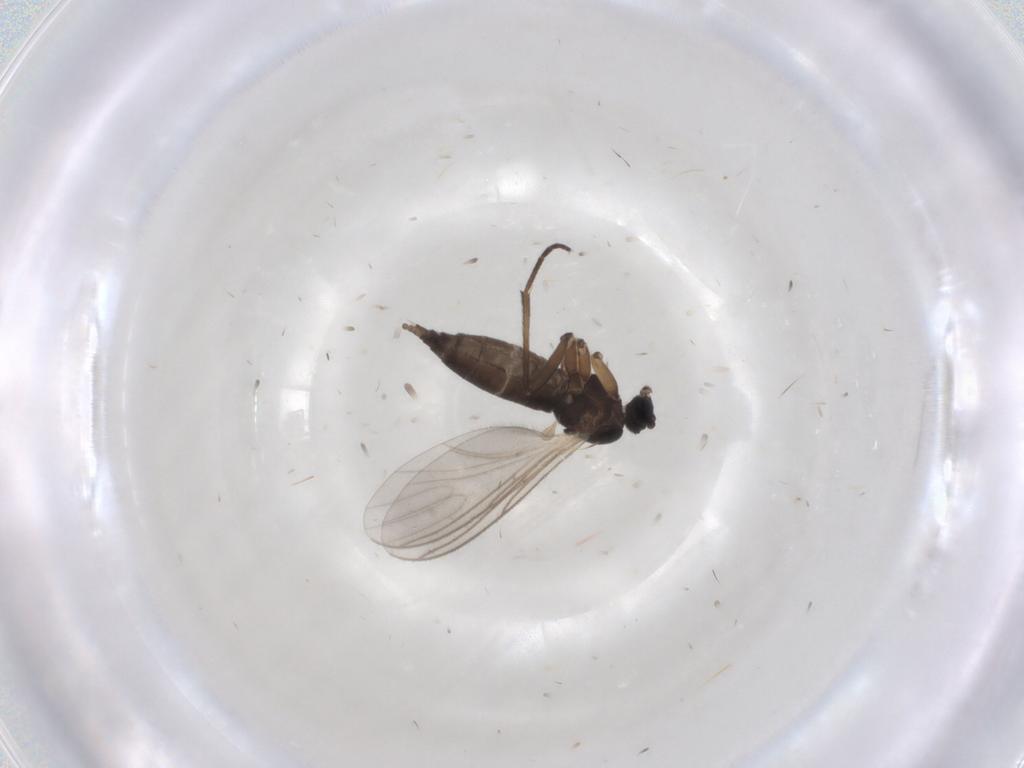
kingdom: Animalia
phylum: Arthropoda
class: Insecta
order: Diptera
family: Sciaridae
